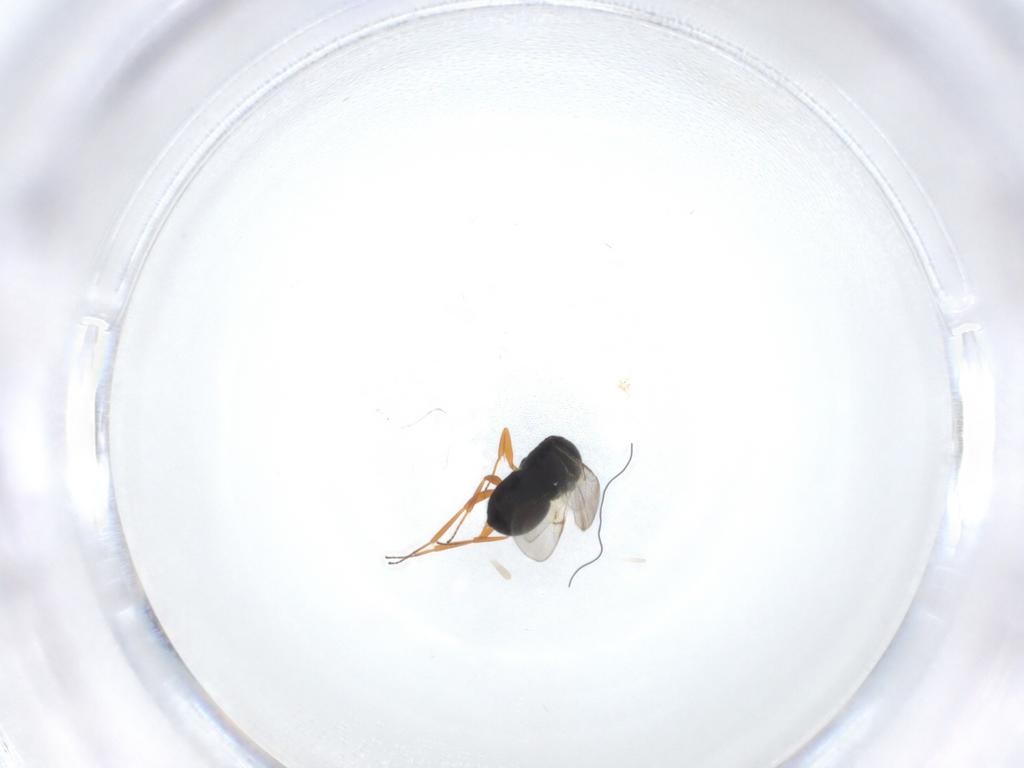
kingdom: Animalia
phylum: Arthropoda
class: Insecta
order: Hymenoptera
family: Scelionidae
